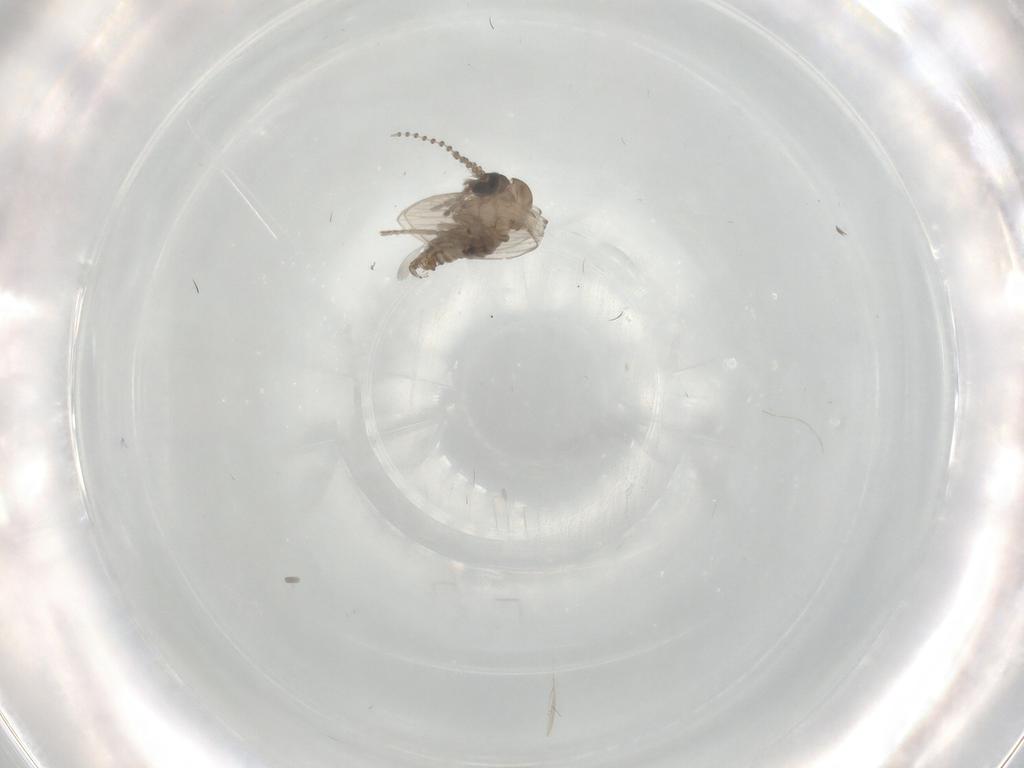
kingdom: Animalia
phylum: Arthropoda
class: Insecta
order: Diptera
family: Psychodidae
